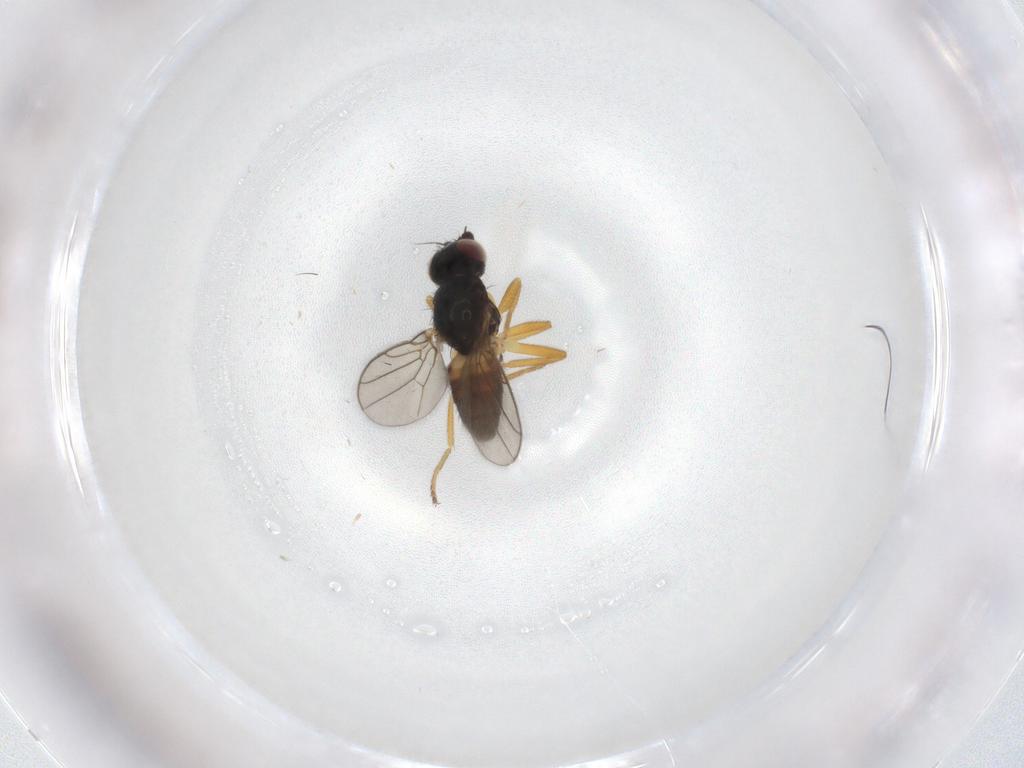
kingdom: Animalia
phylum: Arthropoda
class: Insecta
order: Diptera
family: Chloropidae
